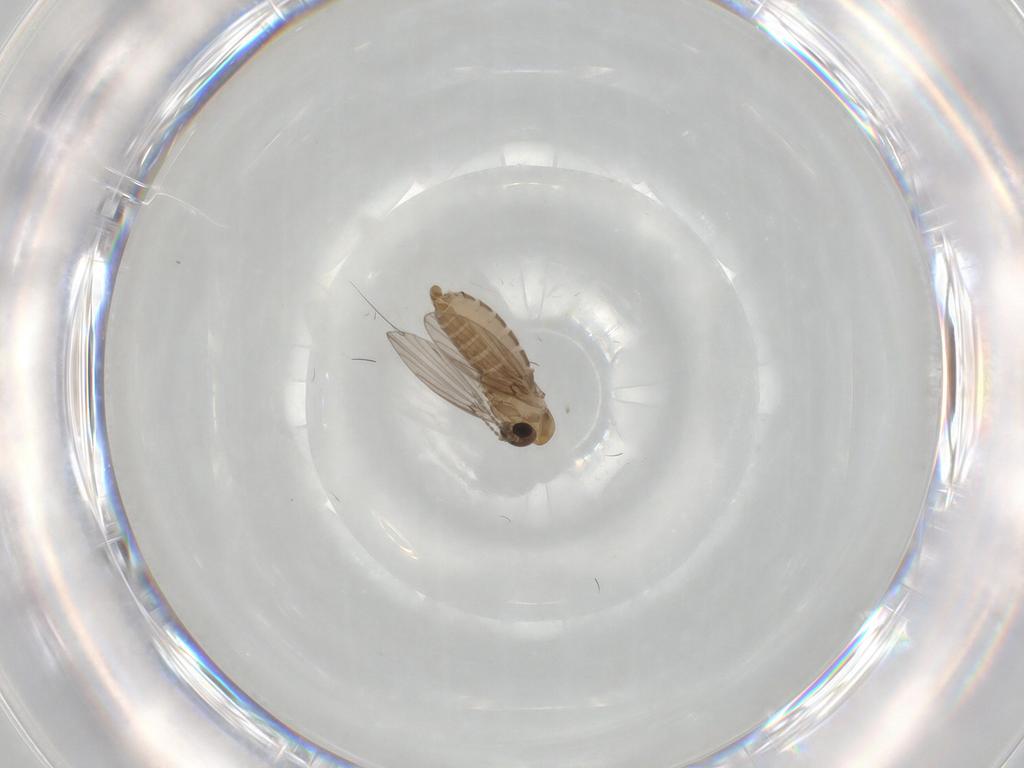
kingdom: Animalia
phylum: Arthropoda
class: Insecta
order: Diptera
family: Psychodidae
